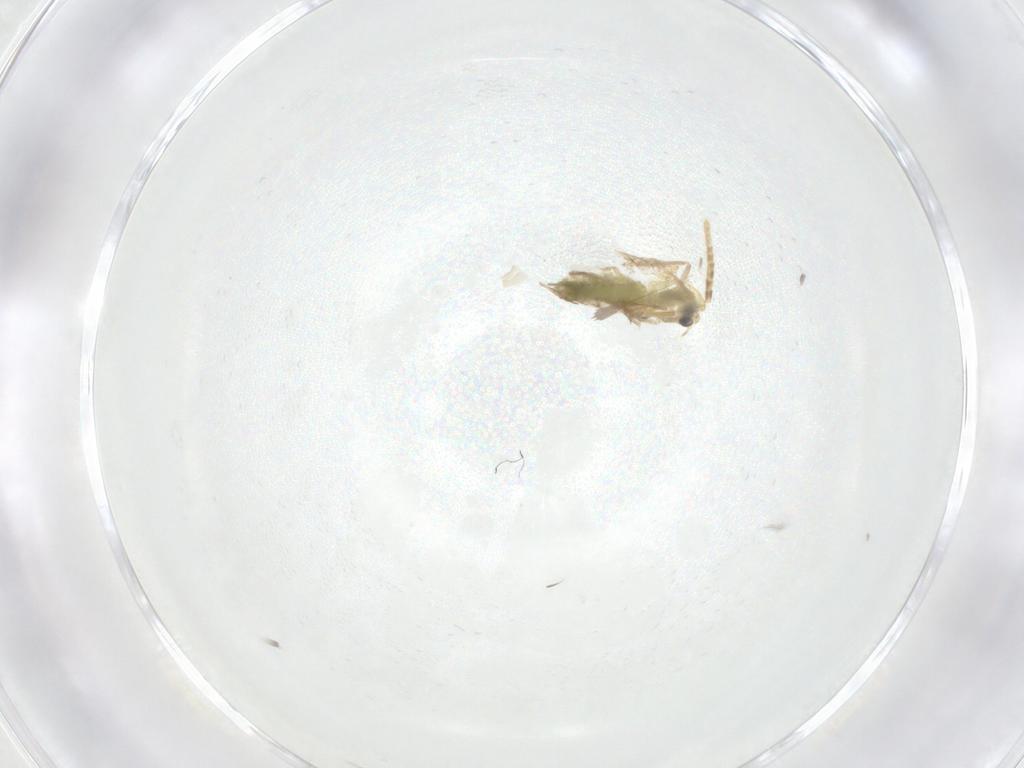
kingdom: Animalia
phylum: Arthropoda
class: Insecta
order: Diptera
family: Chironomidae
